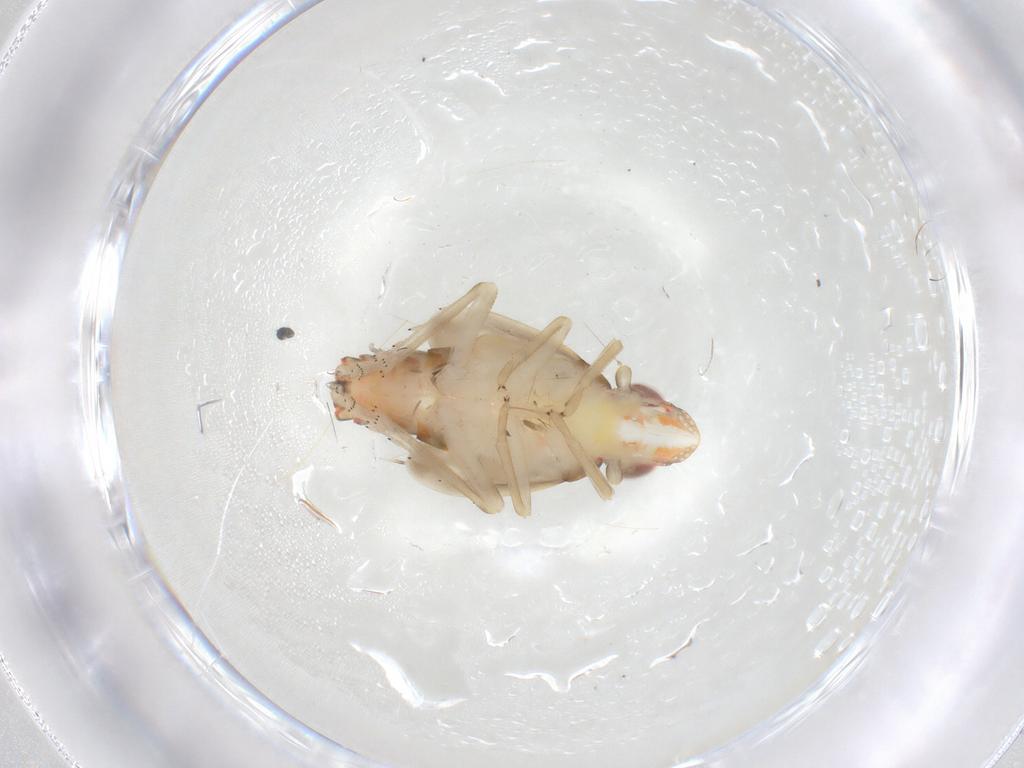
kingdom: Animalia
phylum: Arthropoda
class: Insecta
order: Hemiptera
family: Tropiduchidae
